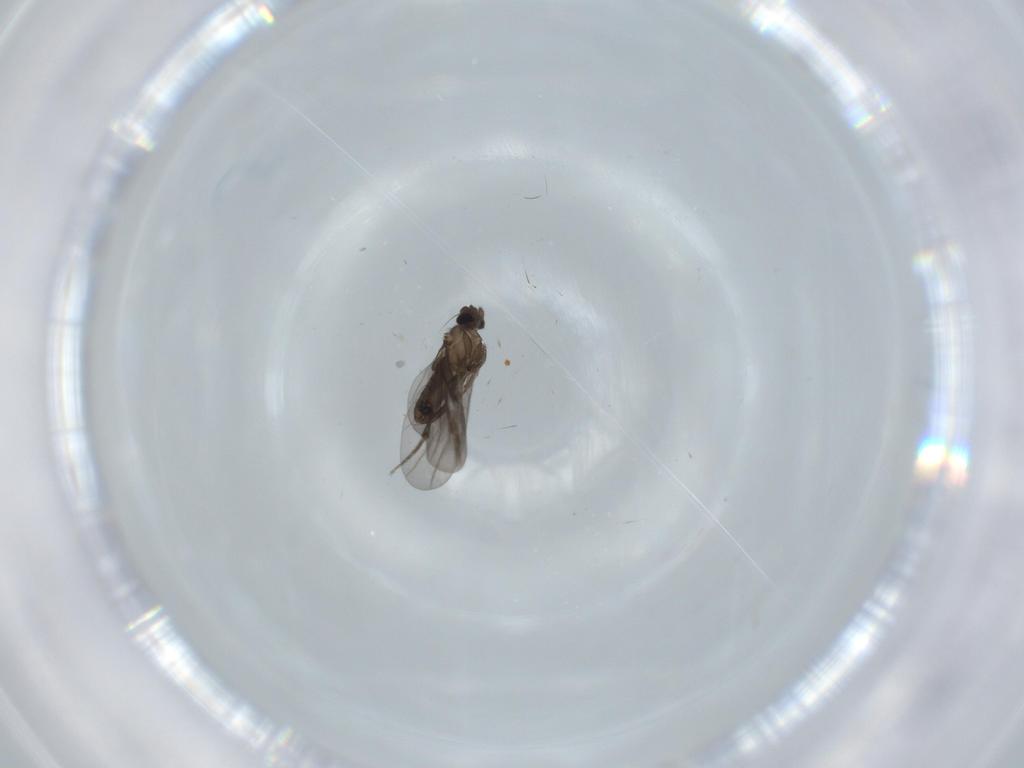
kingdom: Animalia
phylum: Arthropoda
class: Insecta
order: Diptera
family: Phoridae
